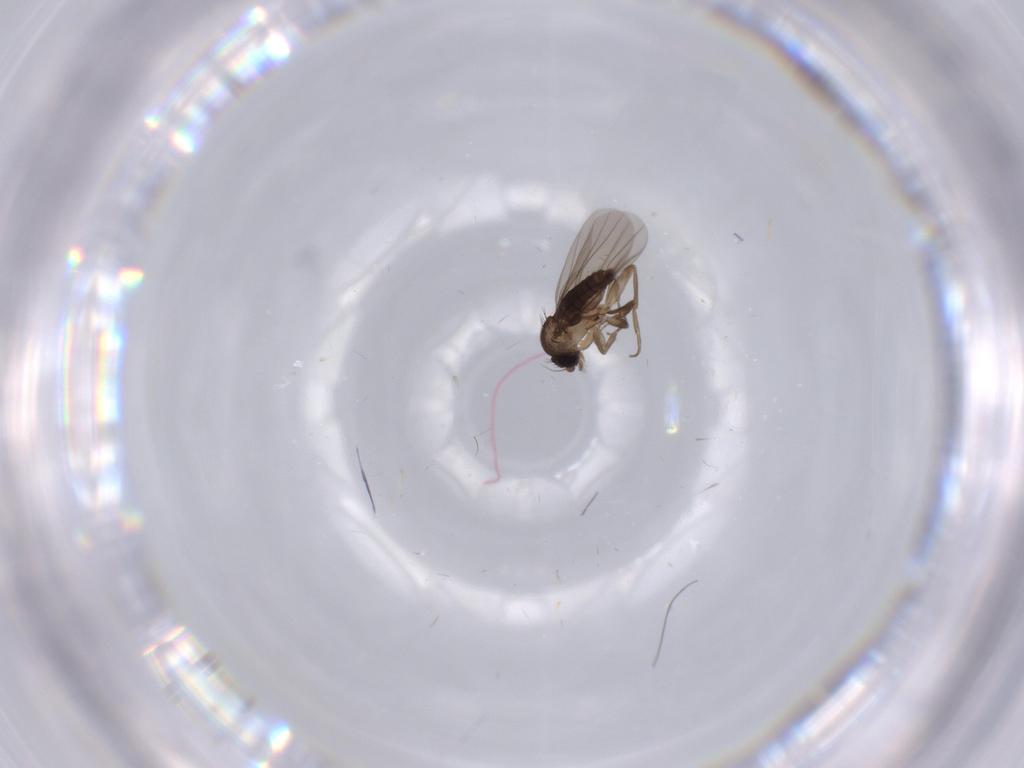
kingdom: Animalia
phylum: Arthropoda
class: Insecta
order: Diptera
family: Phoridae
